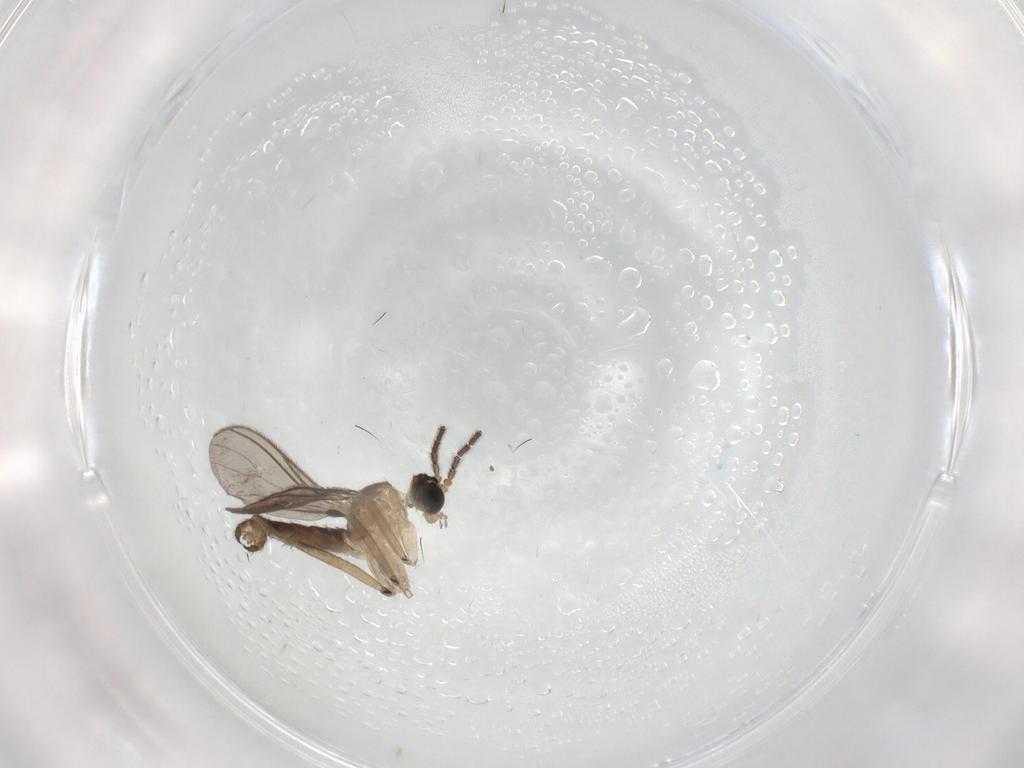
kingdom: Animalia
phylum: Arthropoda
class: Insecta
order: Diptera
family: Sciaridae
